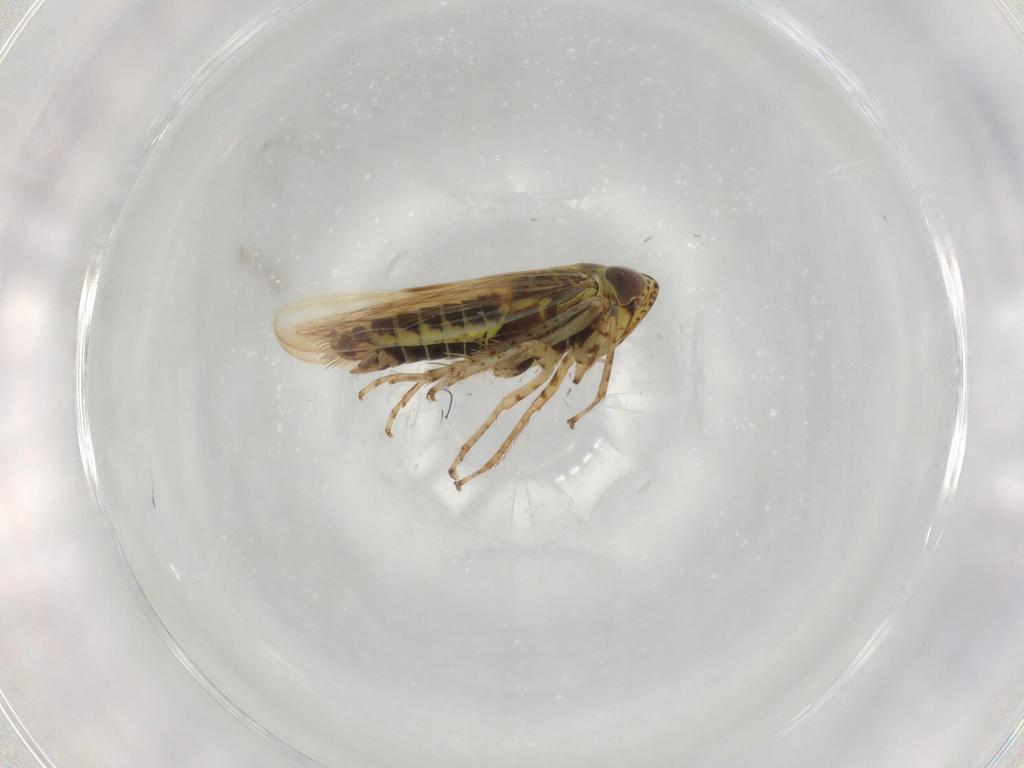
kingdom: Animalia
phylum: Arthropoda
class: Insecta
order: Hemiptera
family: Cicadellidae
